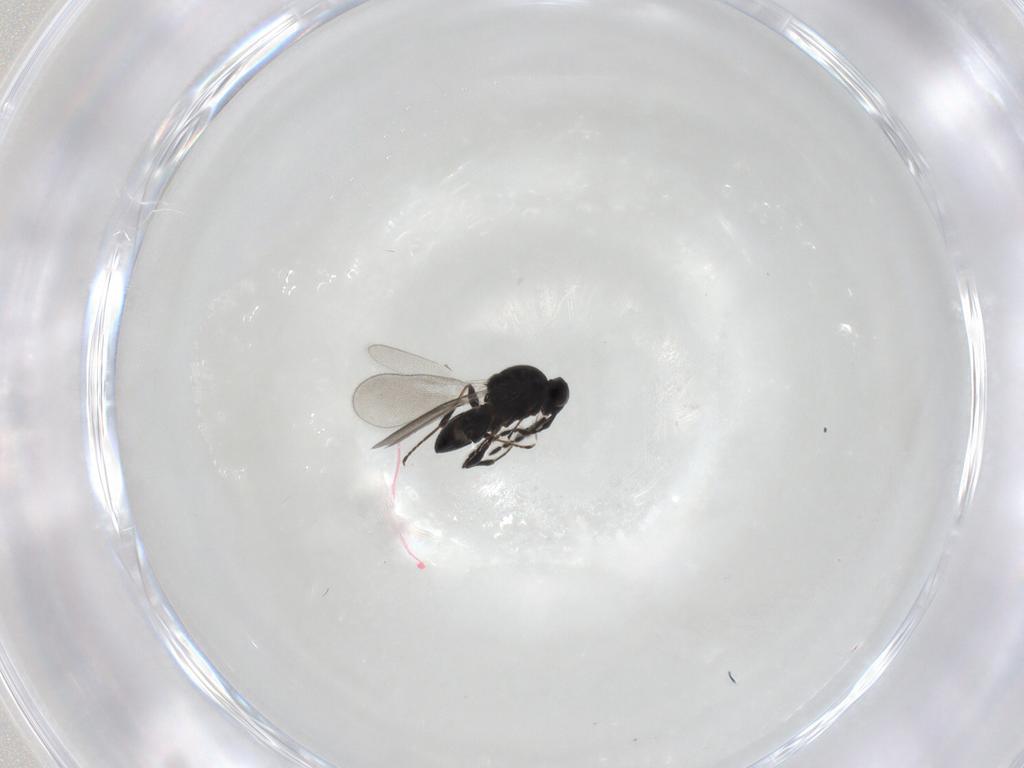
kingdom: Animalia
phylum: Arthropoda
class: Insecta
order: Hymenoptera
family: Platygastridae
